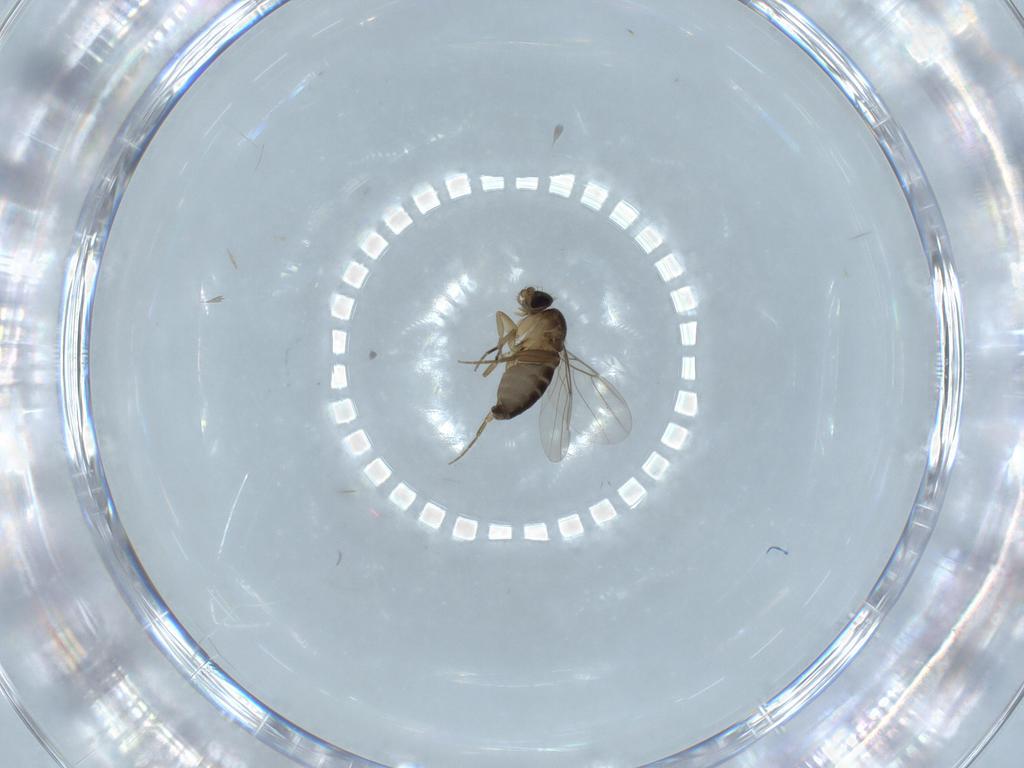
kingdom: Animalia
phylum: Arthropoda
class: Insecta
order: Diptera
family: Phoridae
